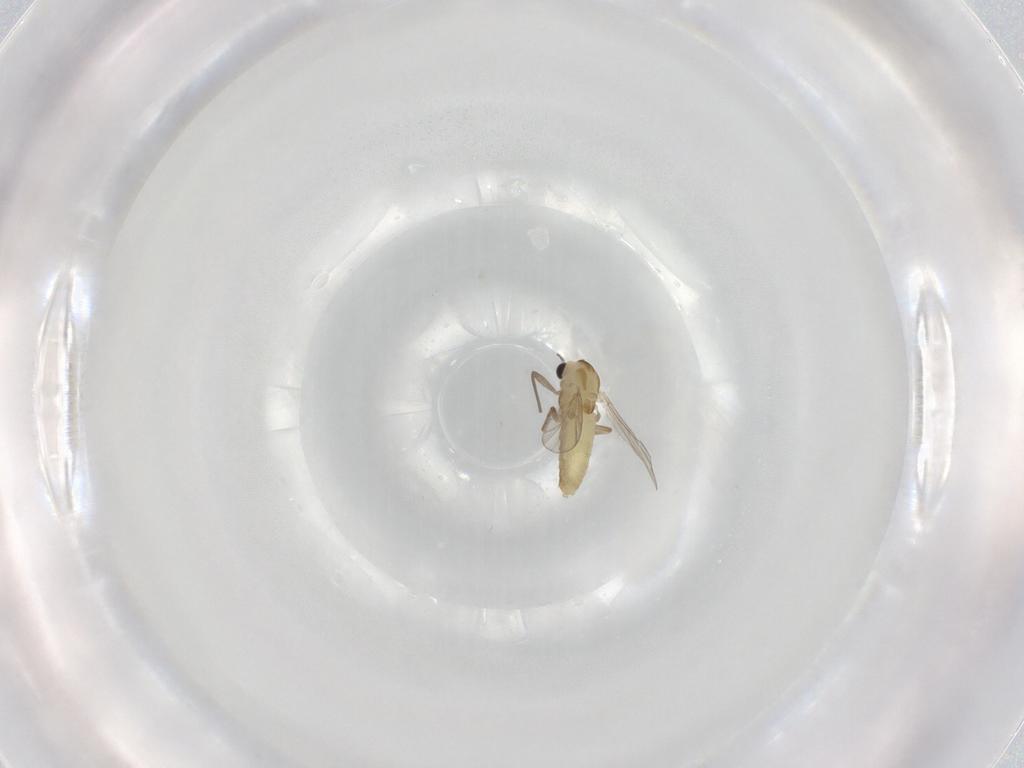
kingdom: Animalia
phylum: Arthropoda
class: Insecta
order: Diptera
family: Chironomidae
